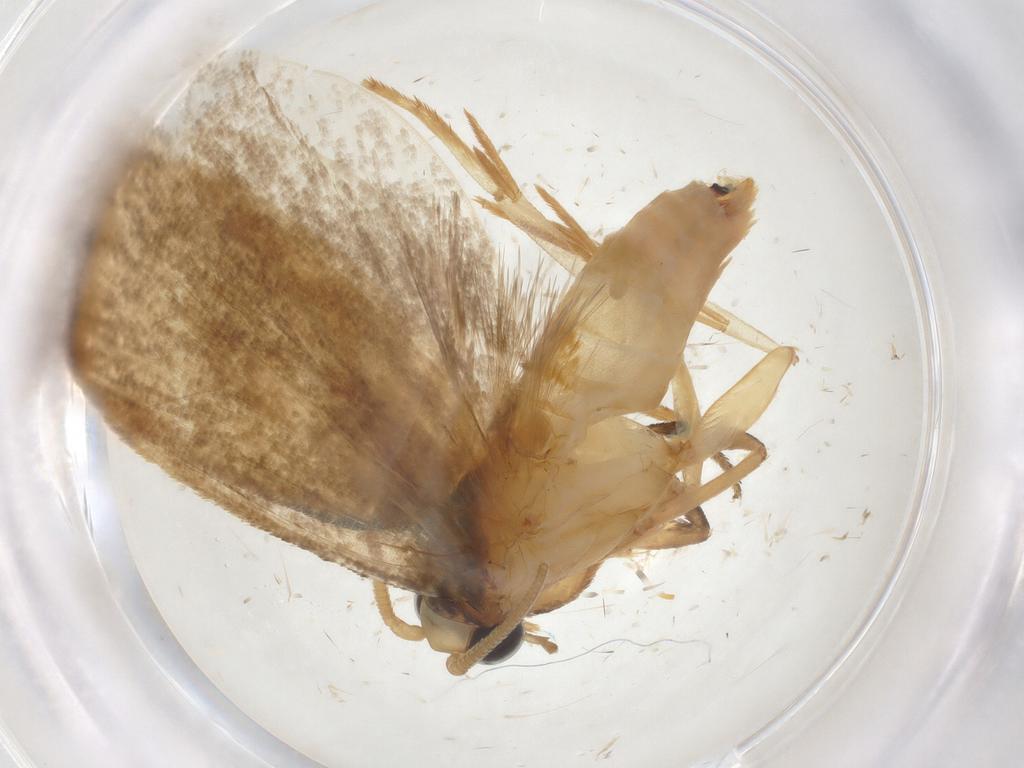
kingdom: Animalia
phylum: Arthropoda
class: Insecta
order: Lepidoptera
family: Erebidae
